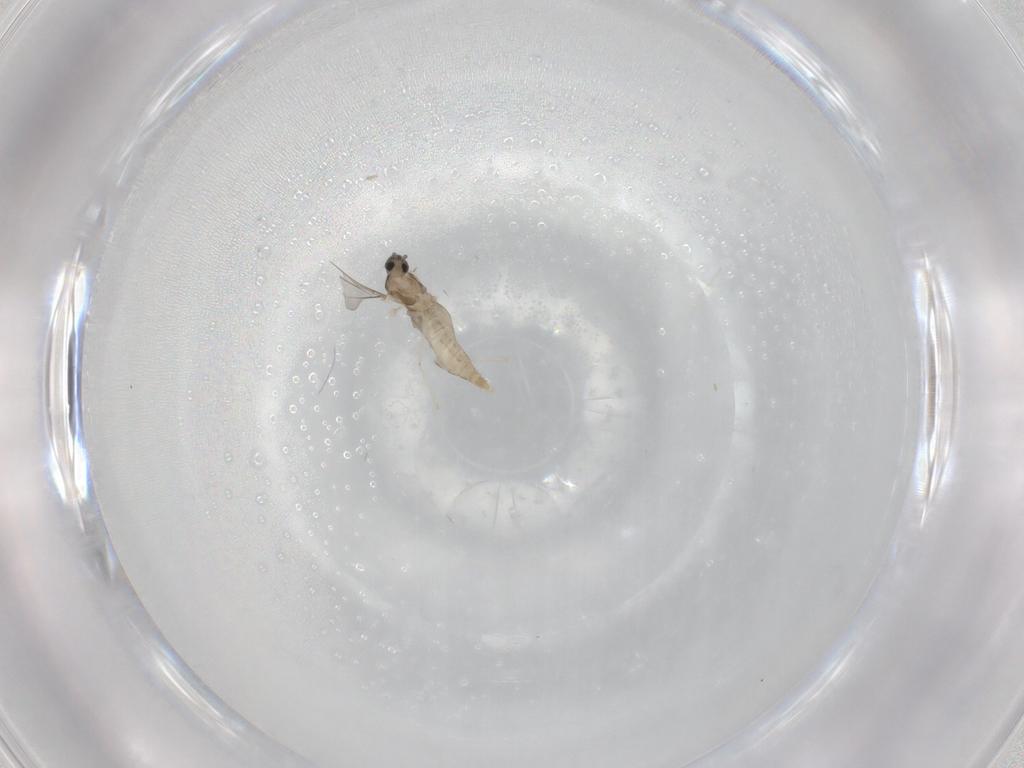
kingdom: Animalia
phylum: Arthropoda
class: Insecta
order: Diptera
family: Cecidomyiidae
